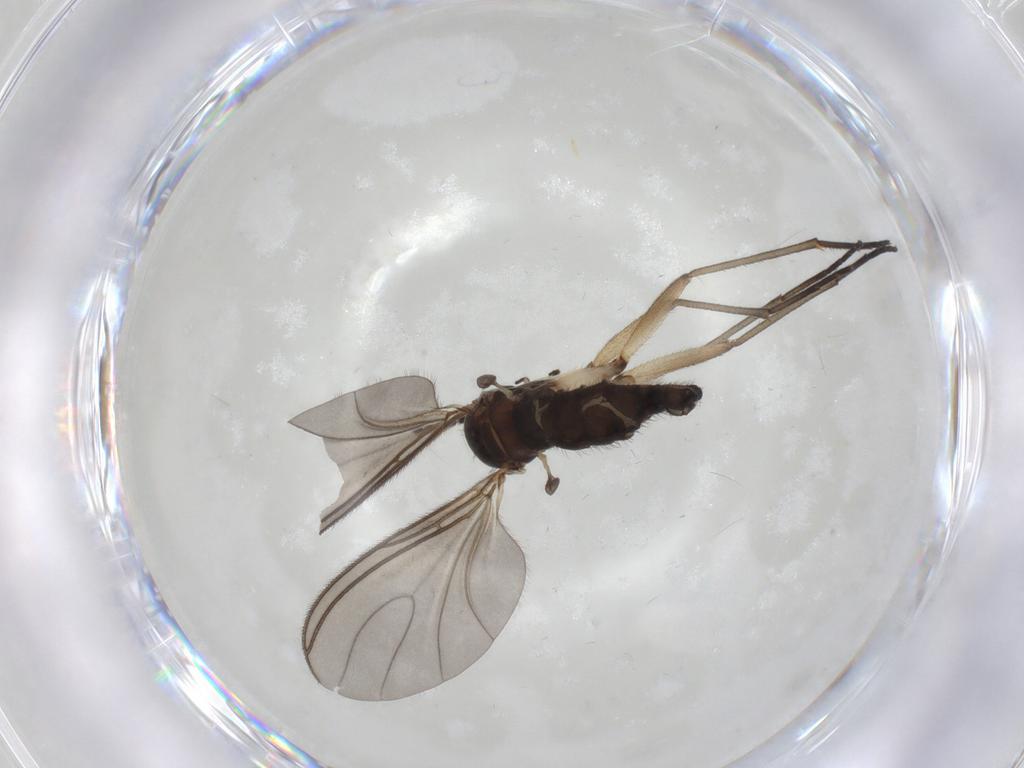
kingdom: Animalia
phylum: Arthropoda
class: Insecta
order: Diptera
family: Sciaridae
